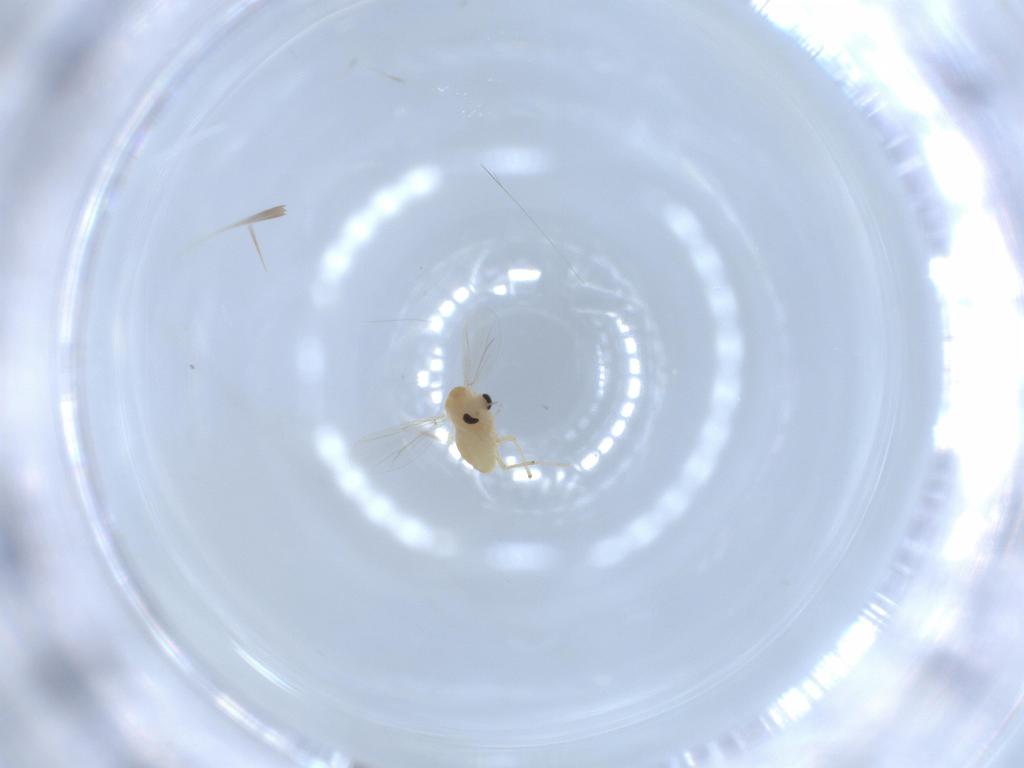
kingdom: Animalia
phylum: Arthropoda
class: Insecta
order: Diptera
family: Chironomidae
